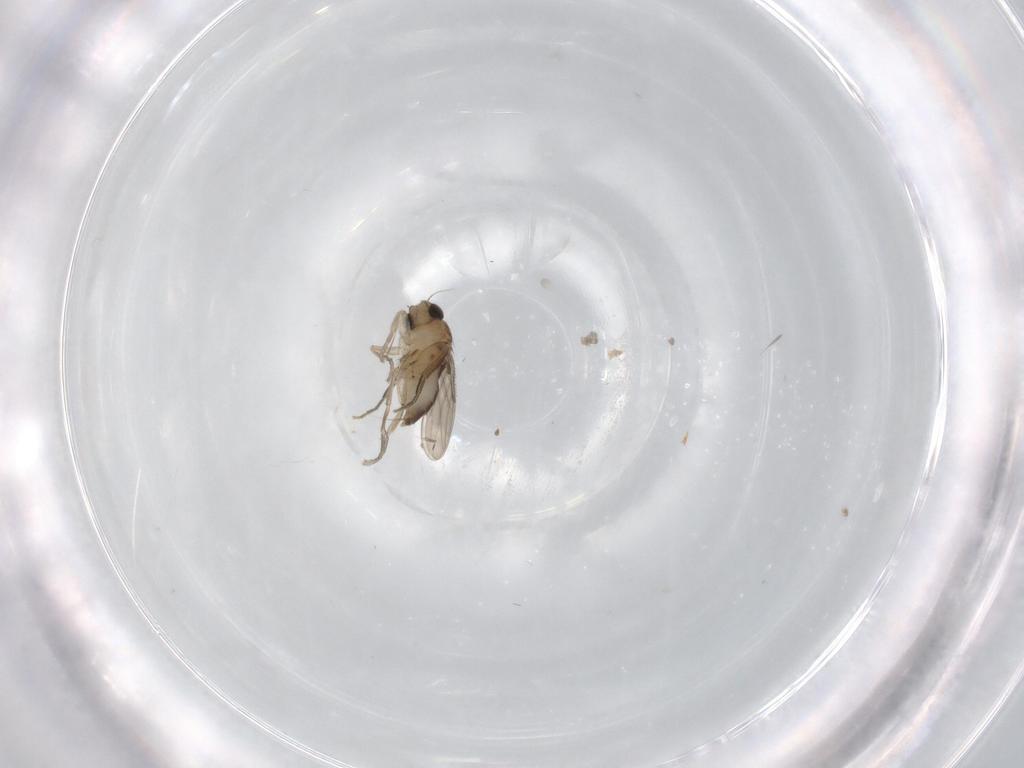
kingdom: Animalia
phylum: Arthropoda
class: Insecta
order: Diptera
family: Phoridae
